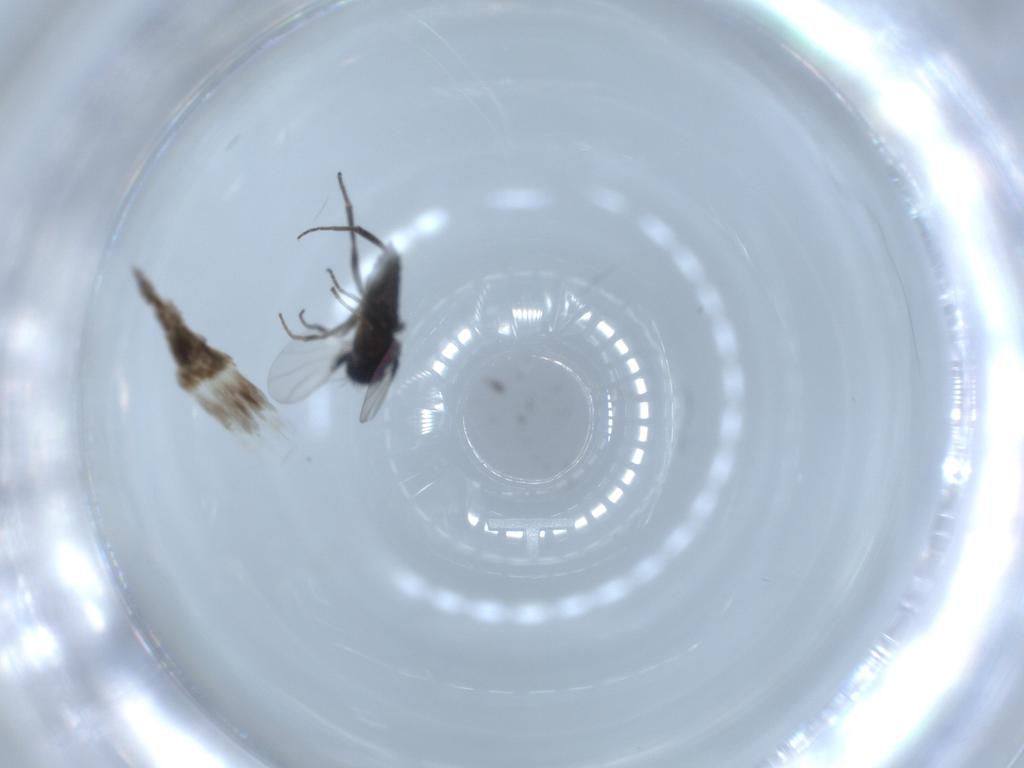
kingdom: Animalia
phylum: Arthropoda
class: Insecta
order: Diptera
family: Phoridae
